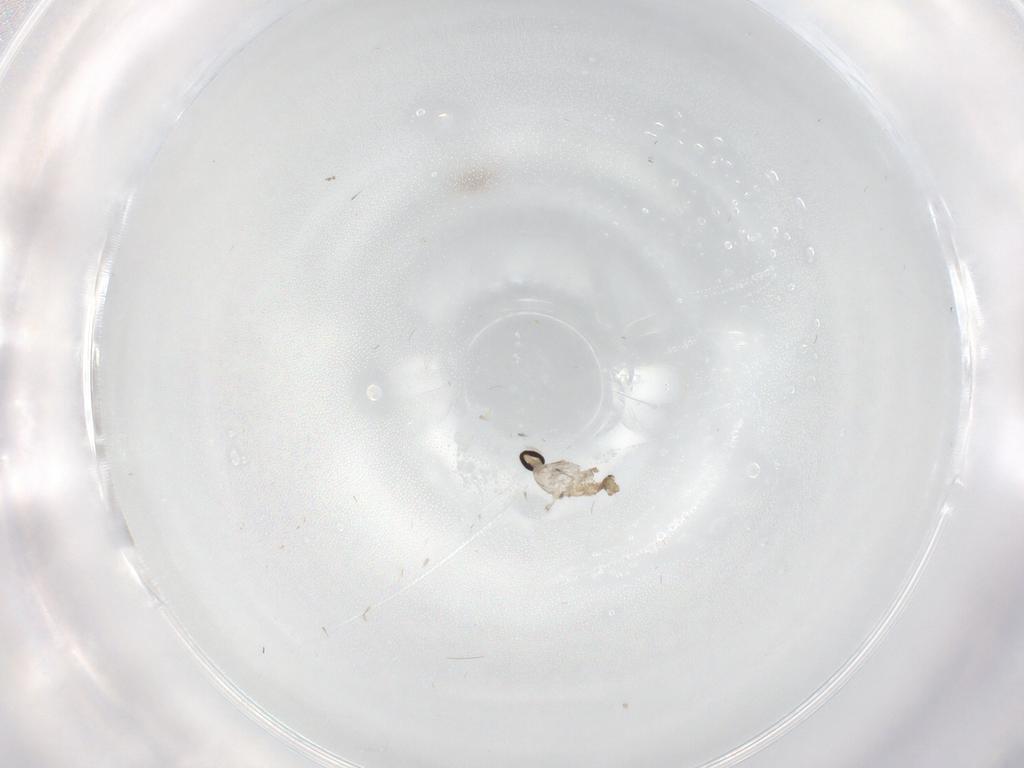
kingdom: Animalia
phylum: Arthropoda
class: Insecta
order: Diptera
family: Cecidomyiidae
